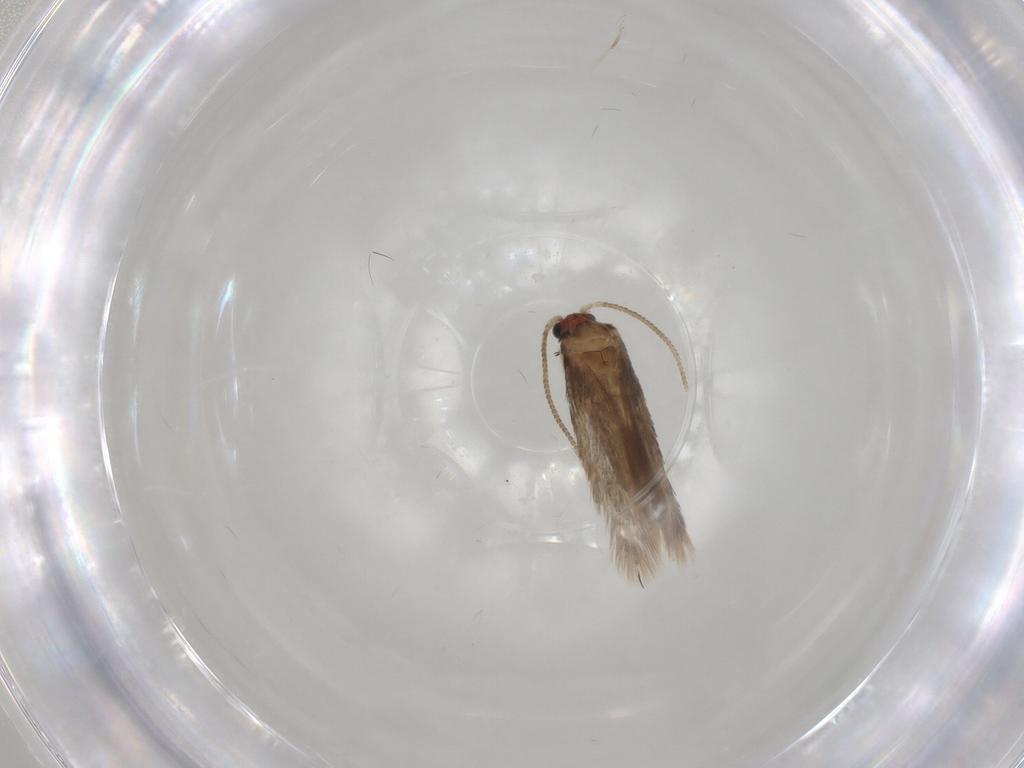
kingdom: Animalia
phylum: Arthropoda
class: Insecta
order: Lepidoptera
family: Nepticulidae
